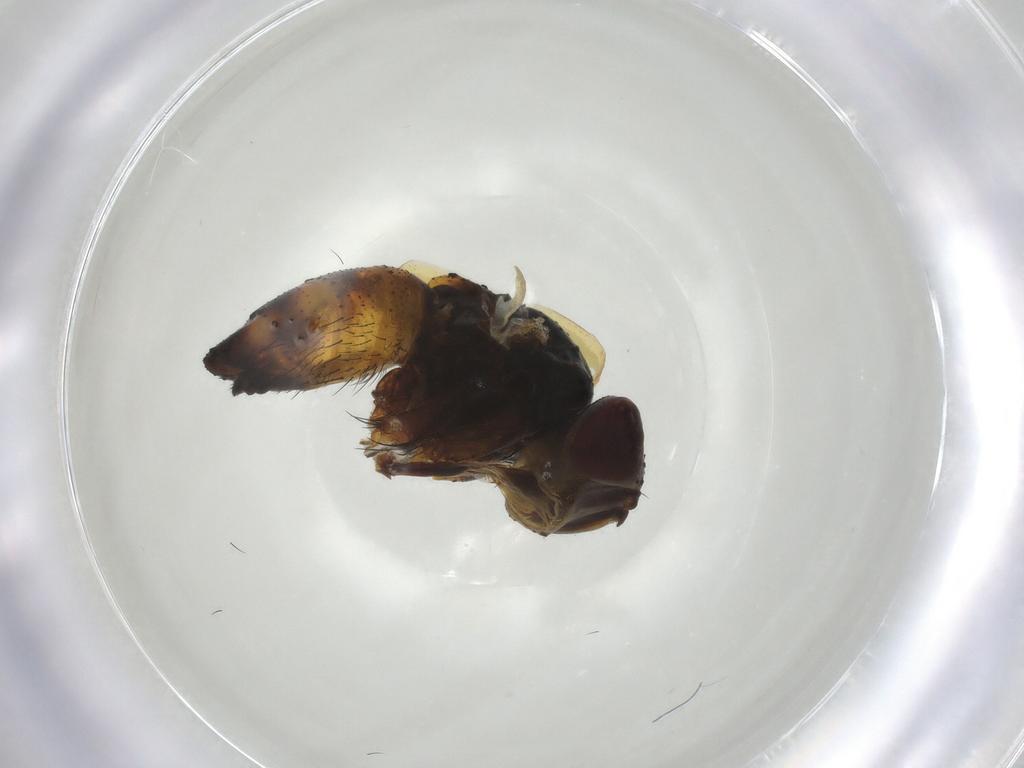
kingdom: Animalia
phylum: Arthropoda
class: Insecta
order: Diptera
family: Tachinidae
